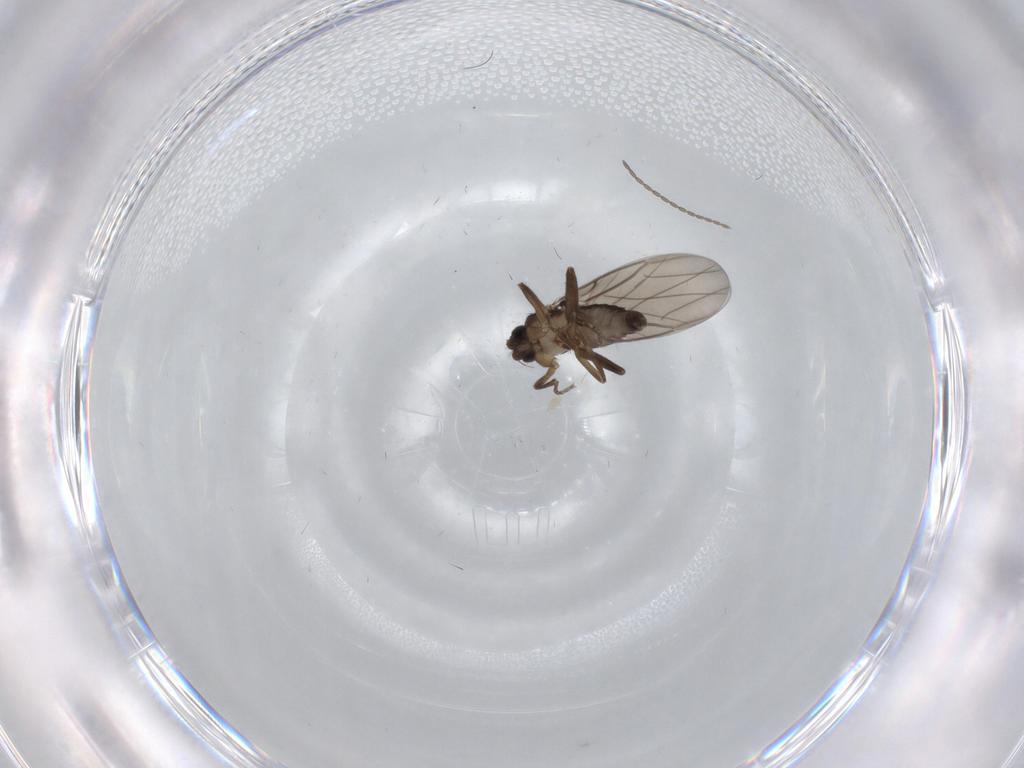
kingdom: Animalia
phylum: Arthropoda
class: Insecta
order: Diptera
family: Phoridae
